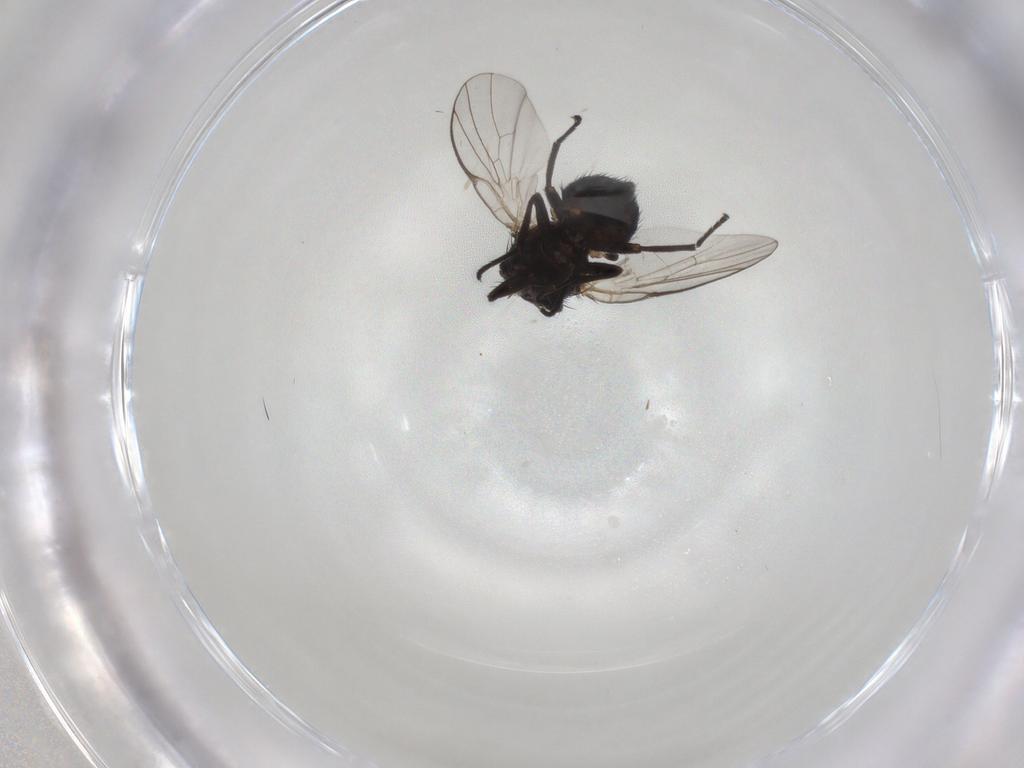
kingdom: Animalia
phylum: Arthropoda
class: Insecta
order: Diptera
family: Agromyzidae
